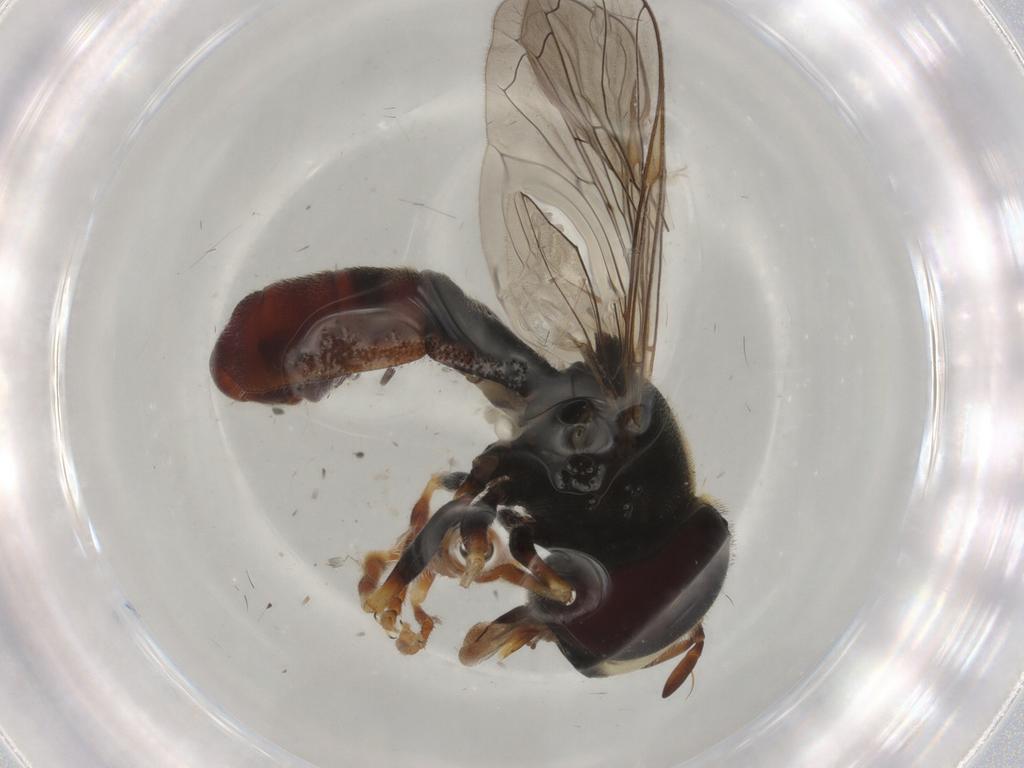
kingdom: Animalia
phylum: Arthropoda
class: Insecta
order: Diptera
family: Syrphidae
